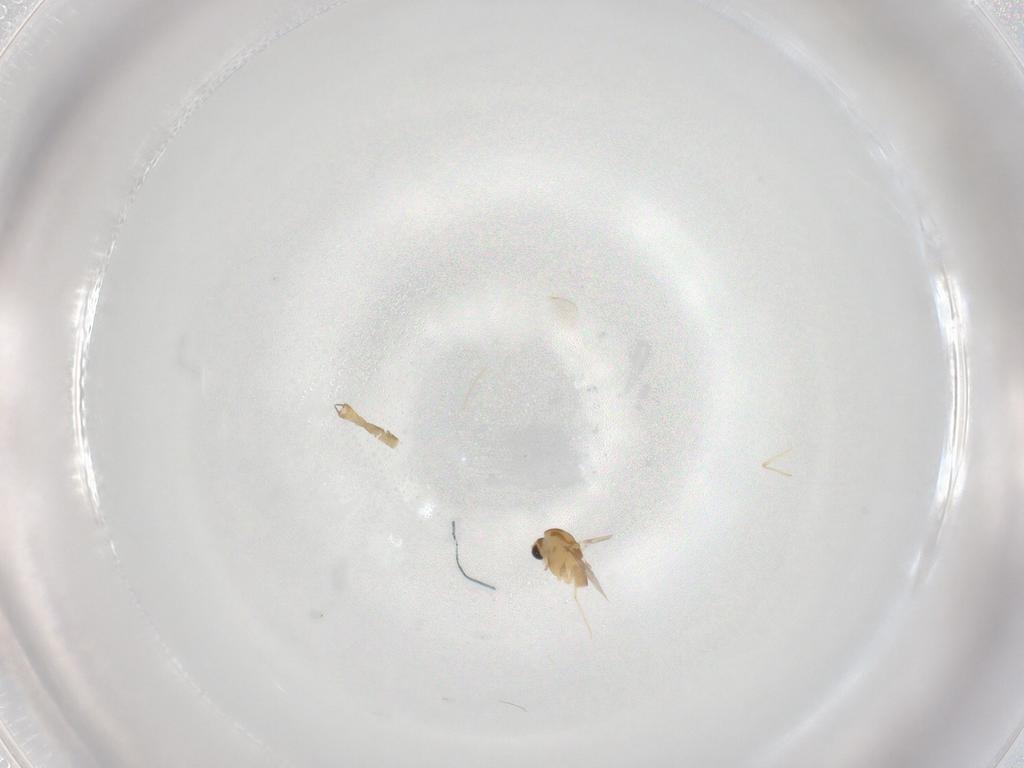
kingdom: Animalia
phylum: Arthropoda
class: Insecta
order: Diptera
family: Chironomidae
